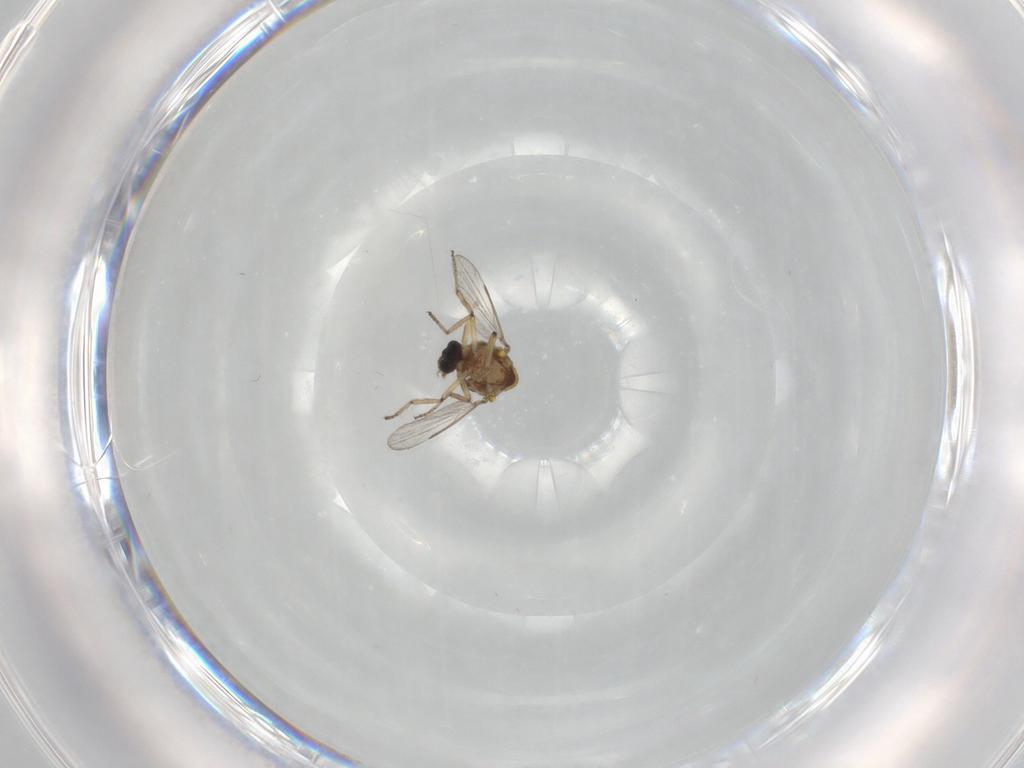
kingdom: Animalia
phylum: Arthropoda
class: Insecta
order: Diptera
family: Ceratopogonidae
